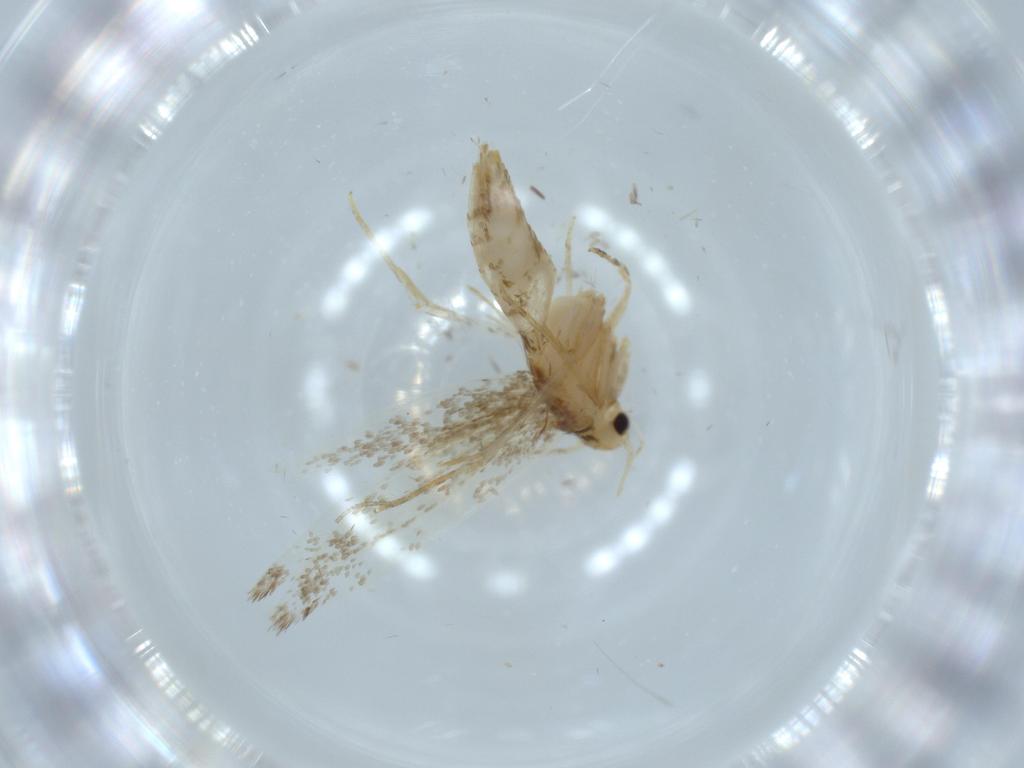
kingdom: Animalia
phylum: Arthropoda
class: Insecta
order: Lepidoptera
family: Tineidae
